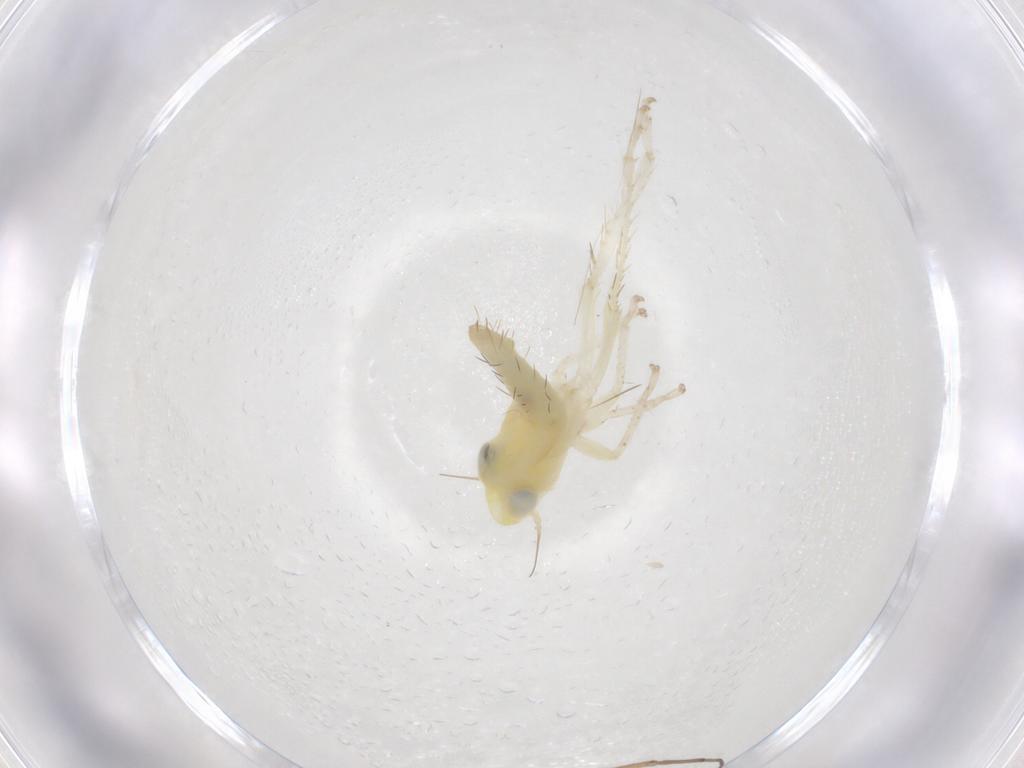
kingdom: Animalia
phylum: Arthropoda
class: Insecta
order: Hemiptera
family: Cicadellidae
